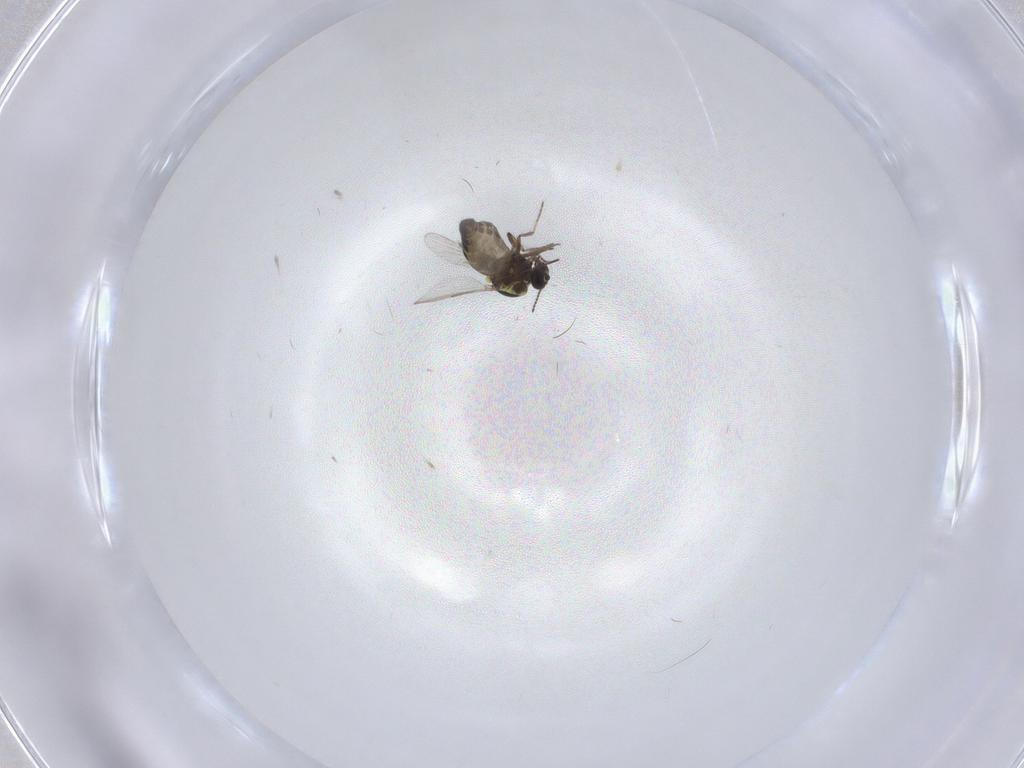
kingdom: Animalia
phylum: Arthropoda
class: Insecta
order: Diptera
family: Ceratopogonidae
